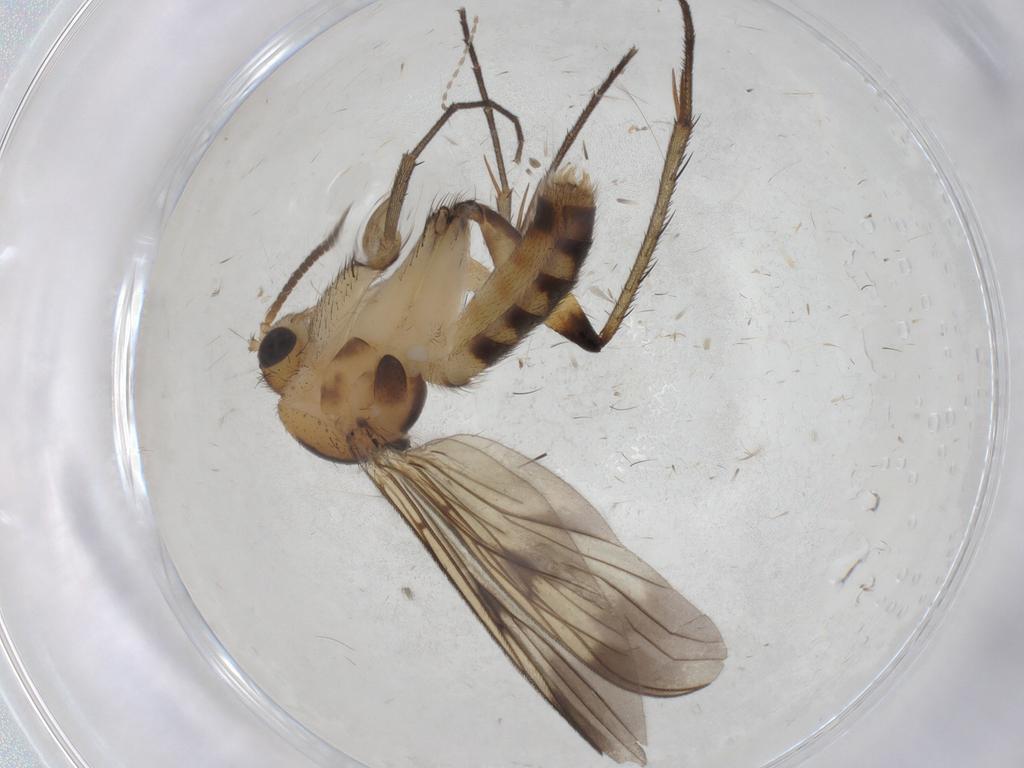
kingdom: Animalia
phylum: Arthropoda
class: Insecta
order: Diptera
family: Mycetophilidae
